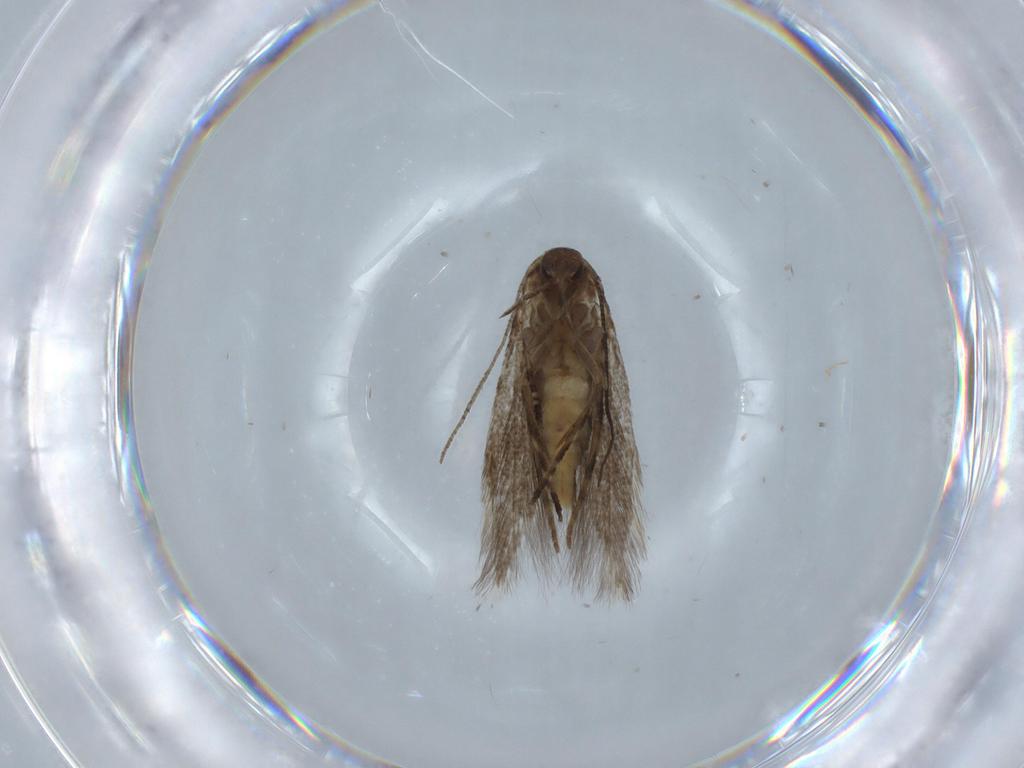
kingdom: Animalia
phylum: Arthropoda
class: Insecta
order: Lepidoptera
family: Elachistidae
